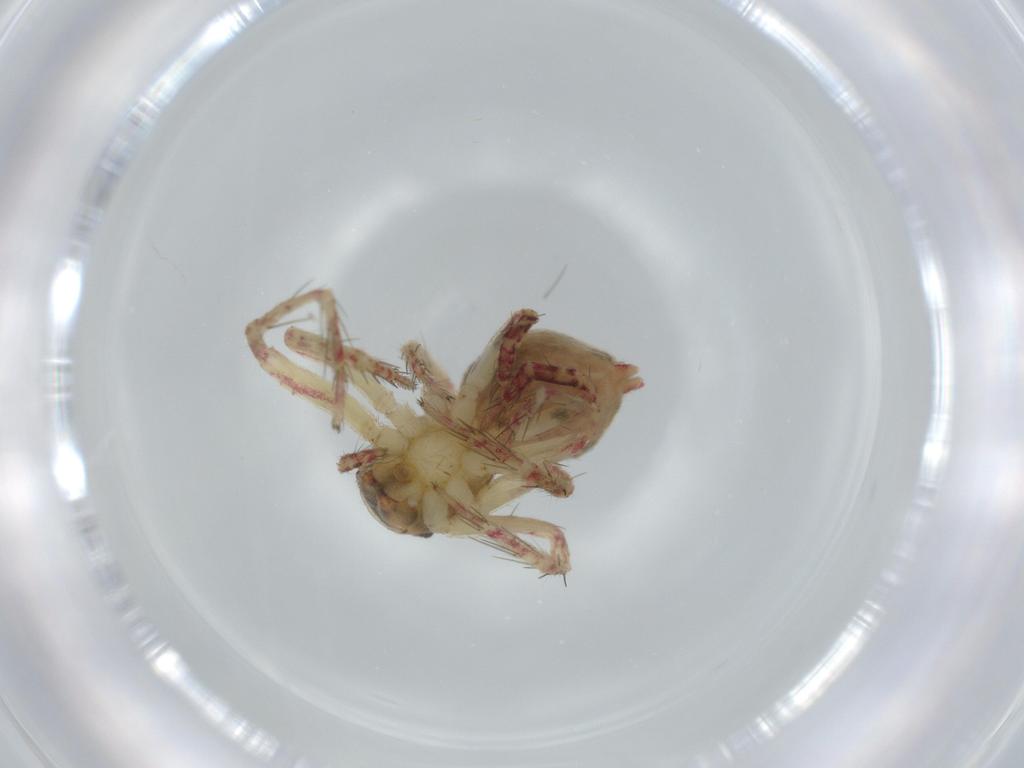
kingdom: Animalia
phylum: Arthropoda
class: Arachnida
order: Araneae
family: Oxyopidae
